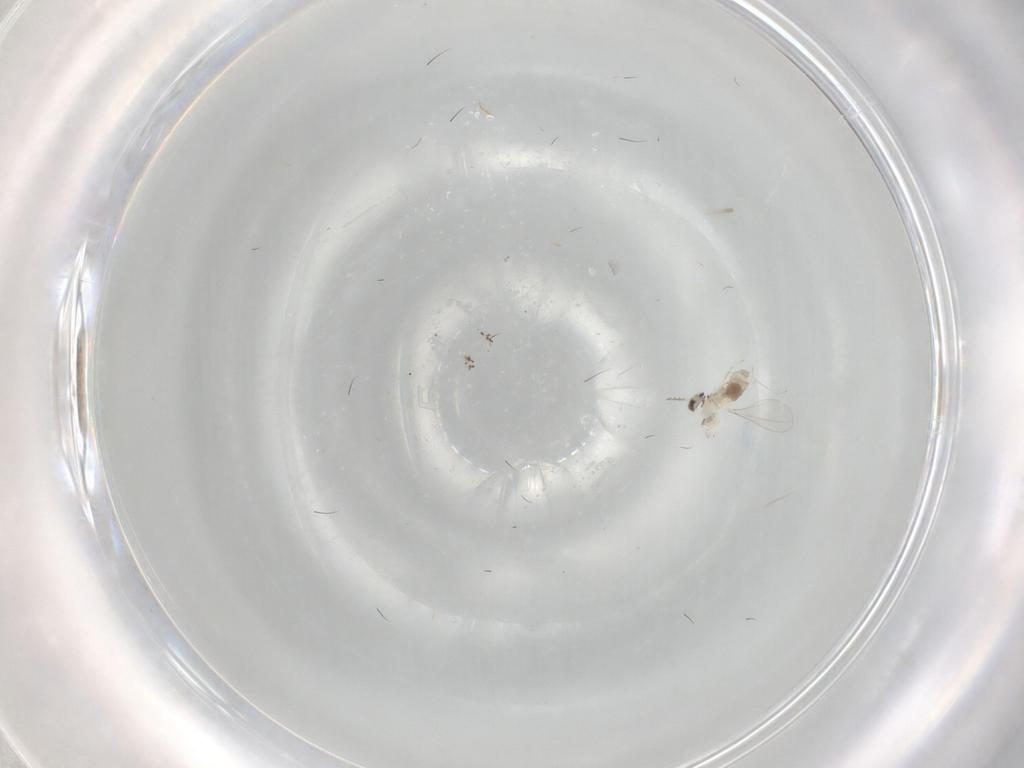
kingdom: Animalia
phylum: Arthropoda
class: Insecta
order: Diptera
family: Cecidomyiidae
